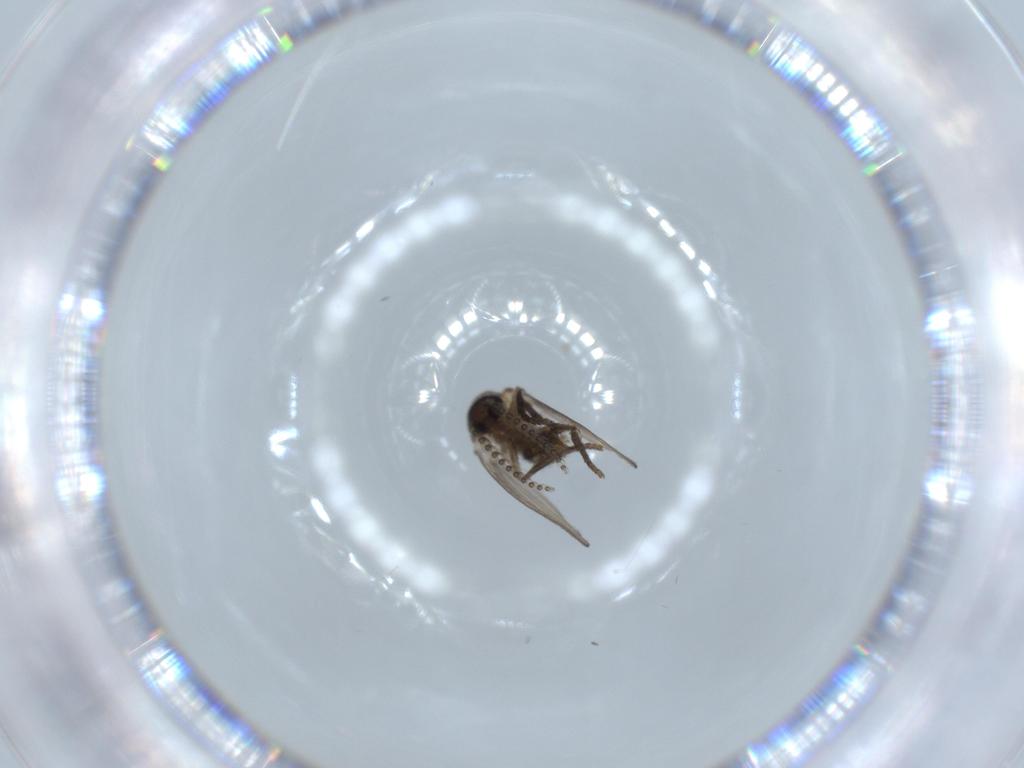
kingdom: Animalia
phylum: Arthropoda
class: Insecta
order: Diptera
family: Psychodidae
